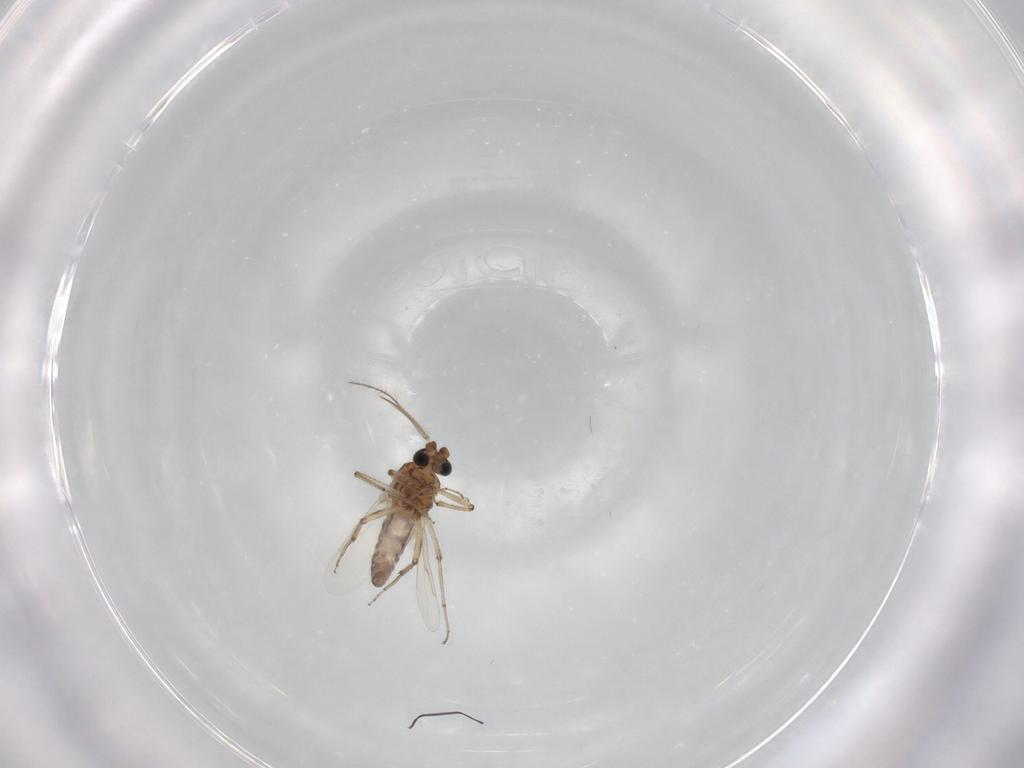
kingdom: Animalia
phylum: Arthropoda
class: Insecta
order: Diptera
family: Ceratopogonidae
